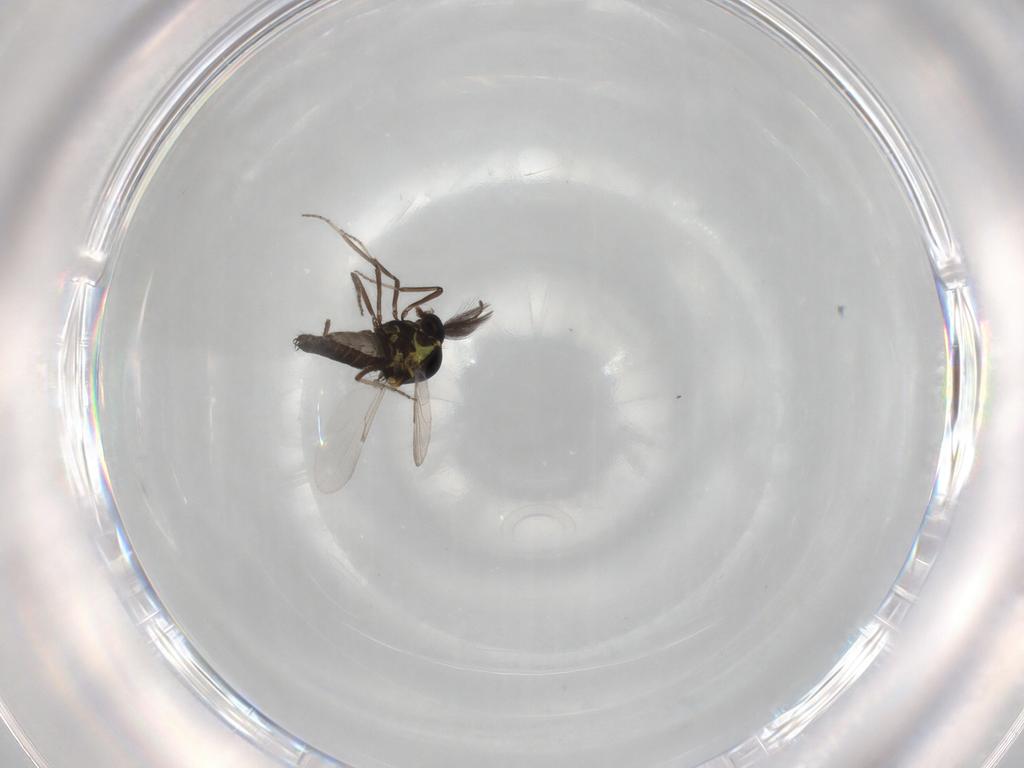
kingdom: Animalia
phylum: Arthropoda
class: Insecta
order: Diptera
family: Ceratopogonidae
